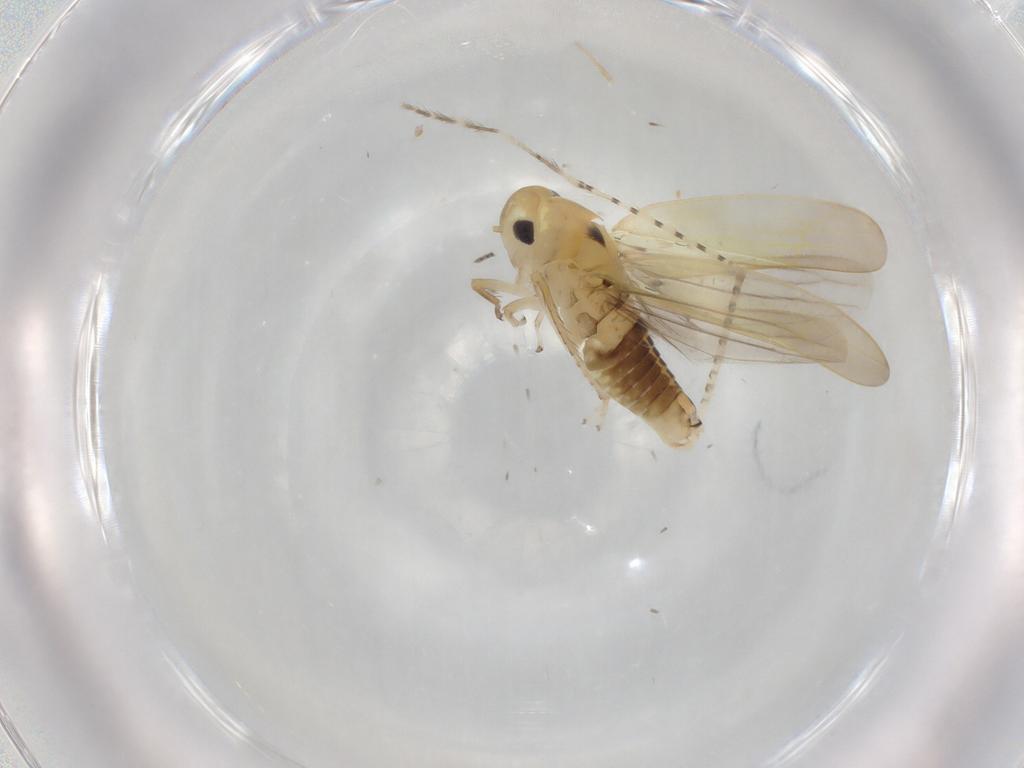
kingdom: Animalia
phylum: Arthropoda
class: Insecta
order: Hemiptera
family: Cicadellidae
